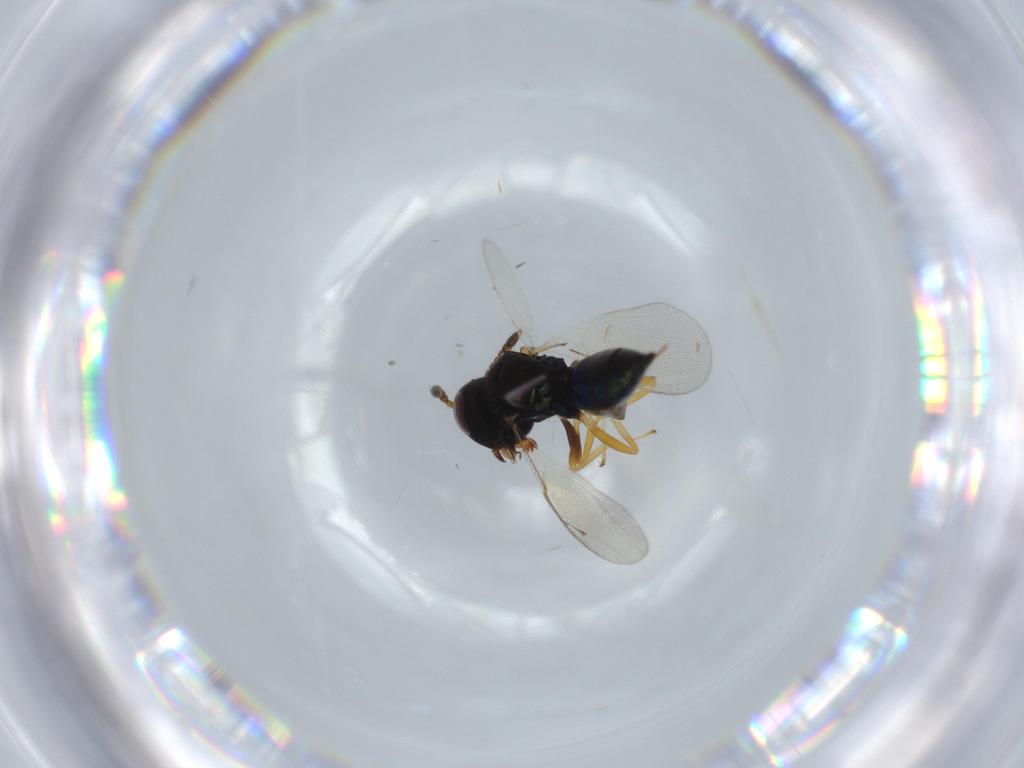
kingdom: Animalia
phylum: Arthropoda
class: Insecta
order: Hymenoptera
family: Pteromalidae
